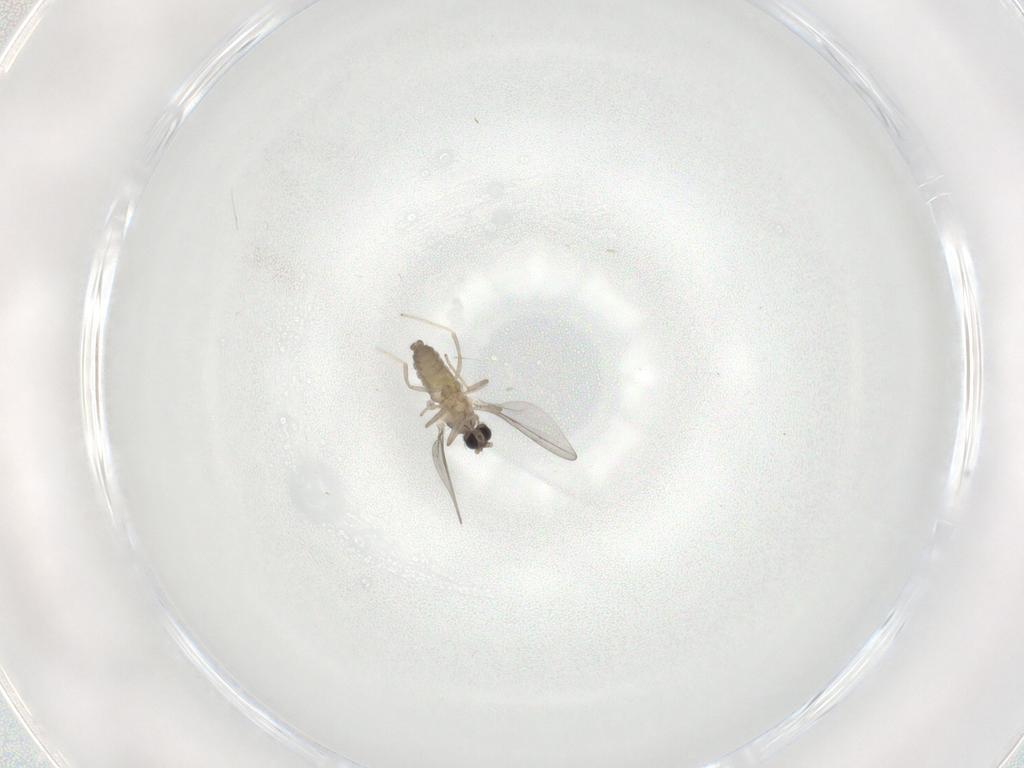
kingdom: Animalia
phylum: Arthropoda
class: Insecta
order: Diptera
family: Cecidomyiidae
